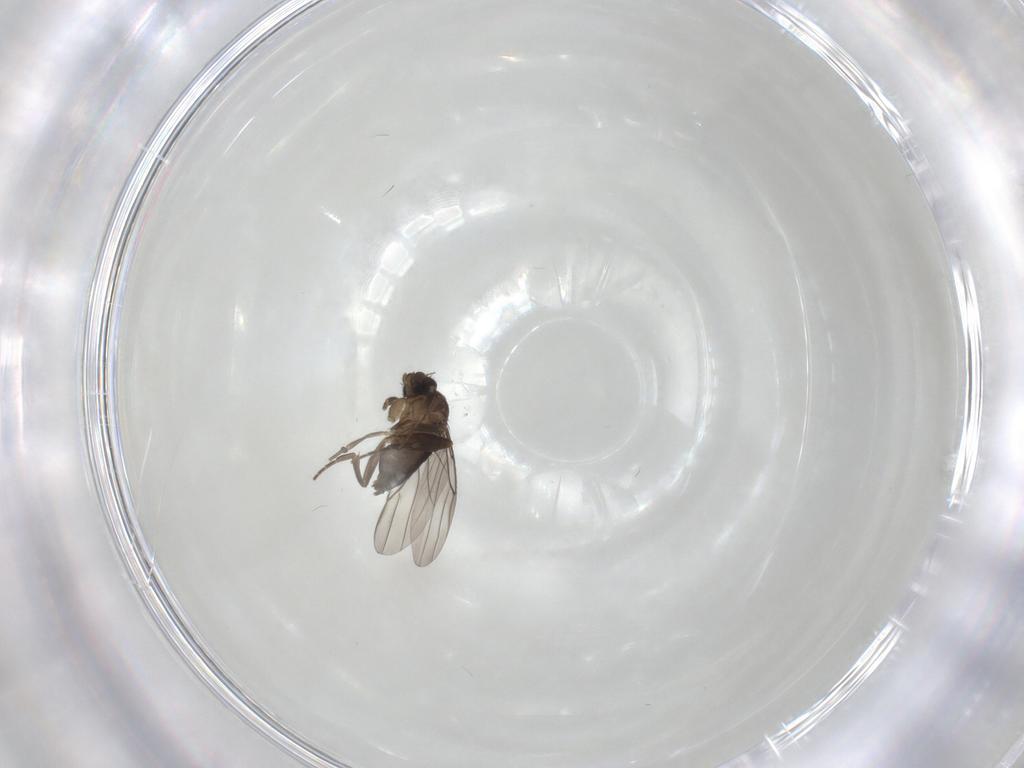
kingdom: Animalia
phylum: Arthropoda
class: Insecta
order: Diptera
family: Phoridae
